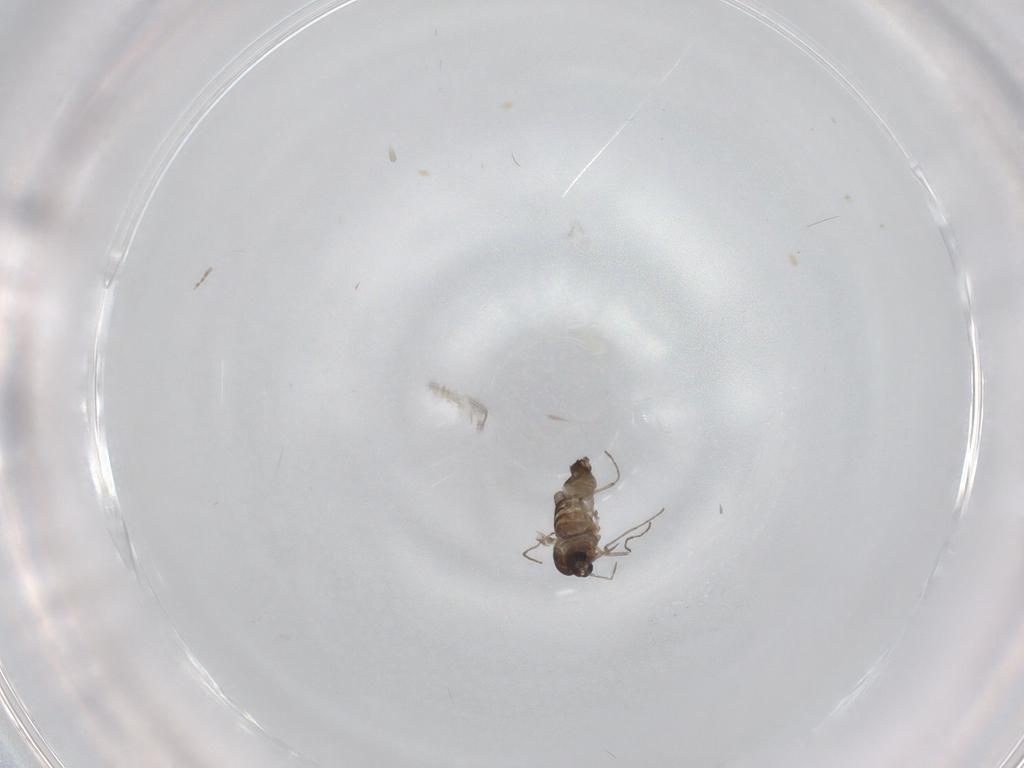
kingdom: Animalia
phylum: Arthropoda
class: Insecta
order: Diptera
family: Chironomidae
